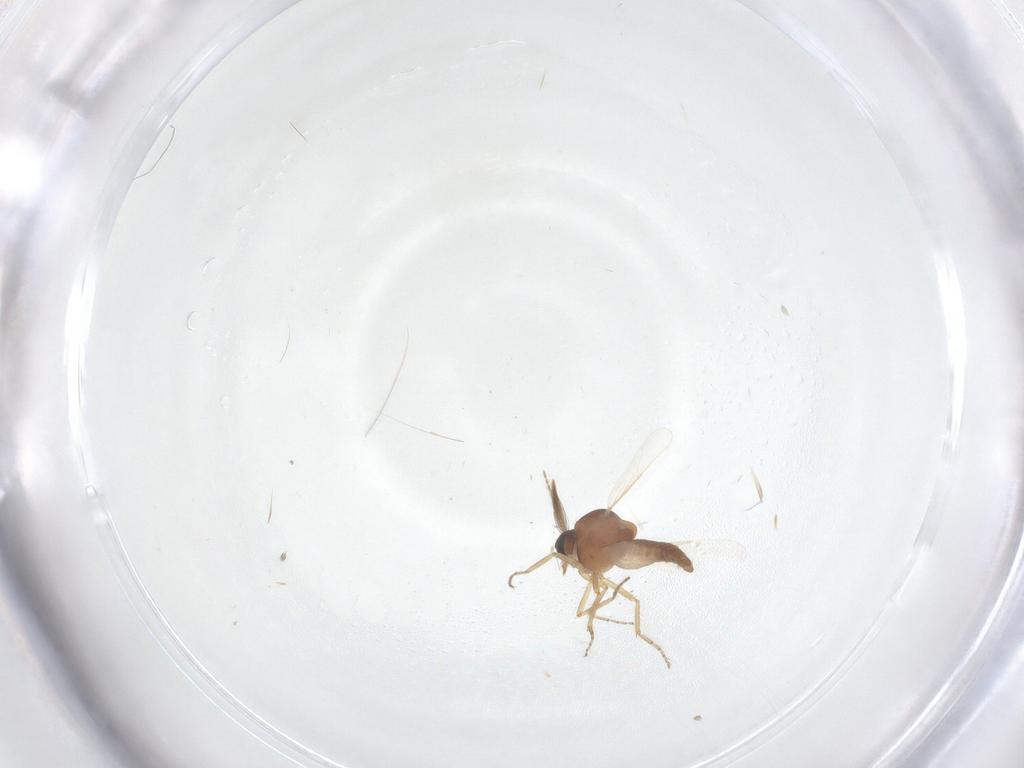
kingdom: Animalia
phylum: Arthropoda
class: Insecta
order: Diptera
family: Ceratopogonidae
